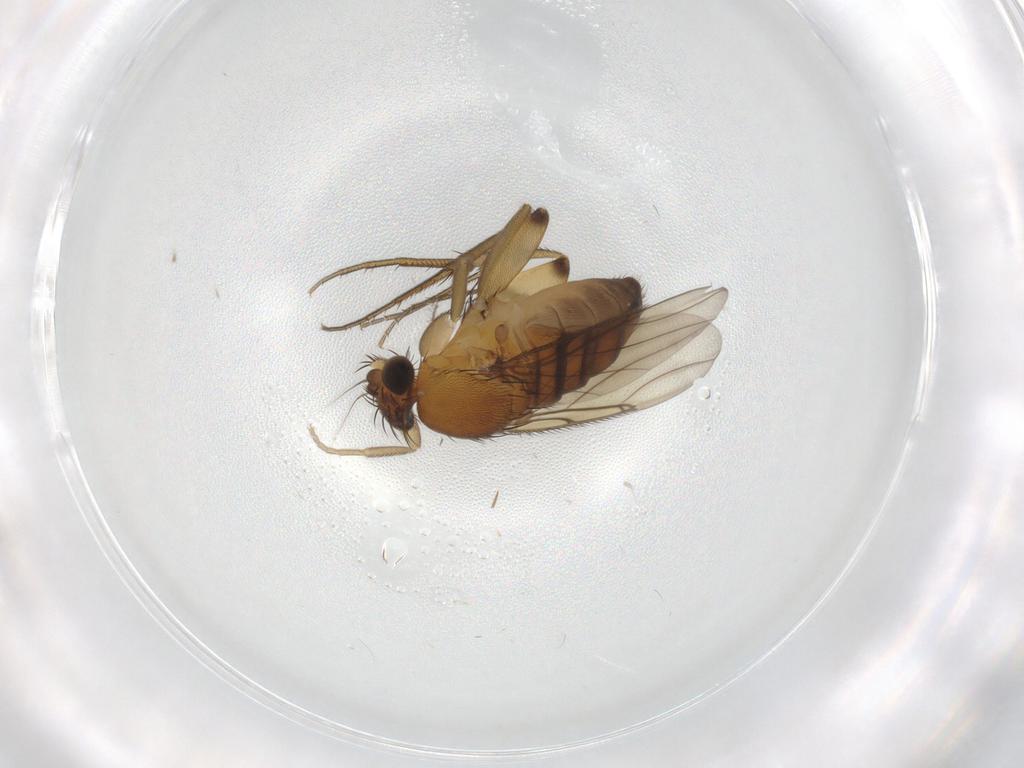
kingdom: Animalia
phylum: Arthropoda
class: Insecta
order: Diptera
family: Phoridae
